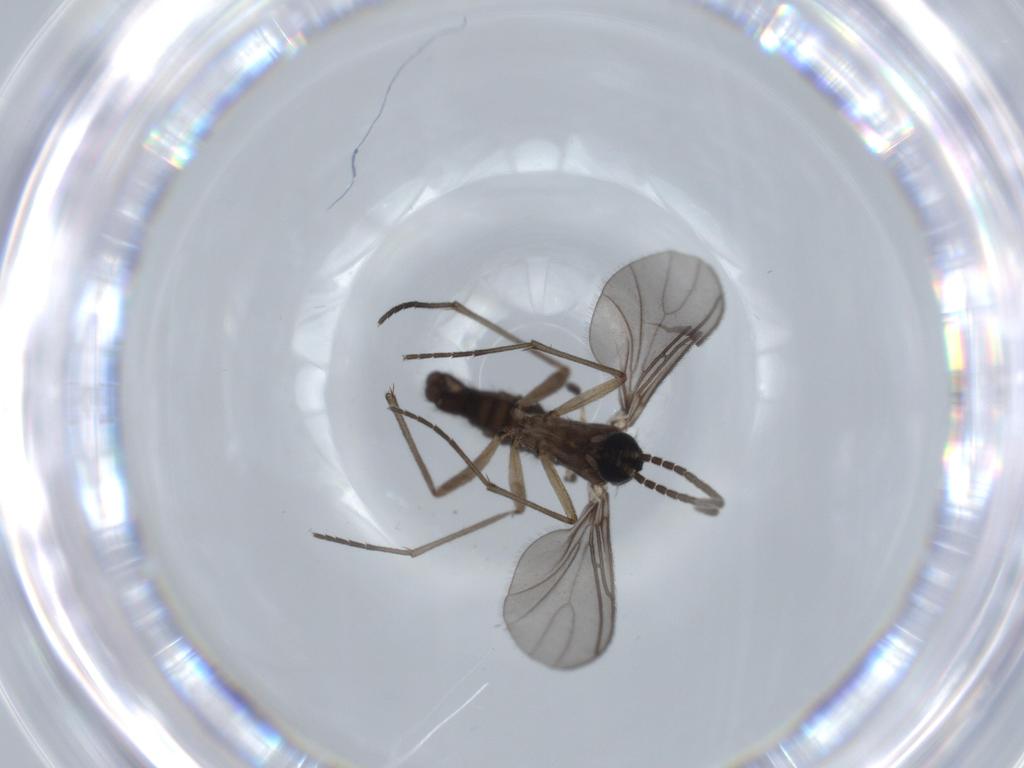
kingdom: Animalia
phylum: Arthropoda
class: Insecta
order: Diptera
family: Sciaridae
